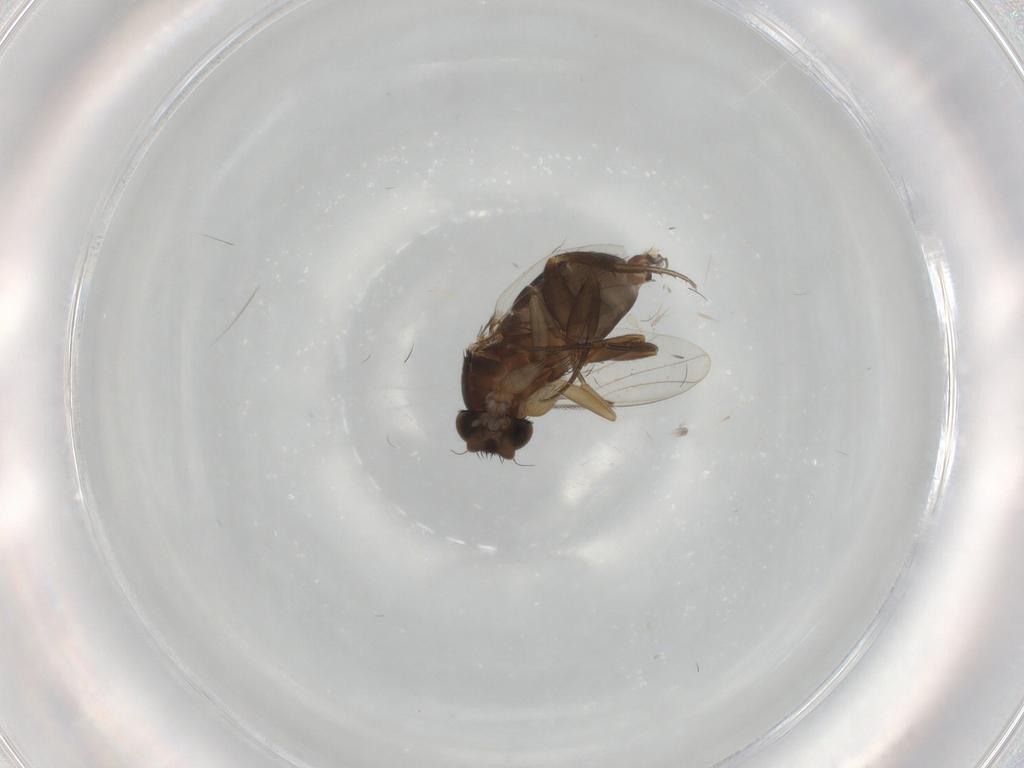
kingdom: Animalia
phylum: Arthropoda
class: Insecta
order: Diptera
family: Phoridae
